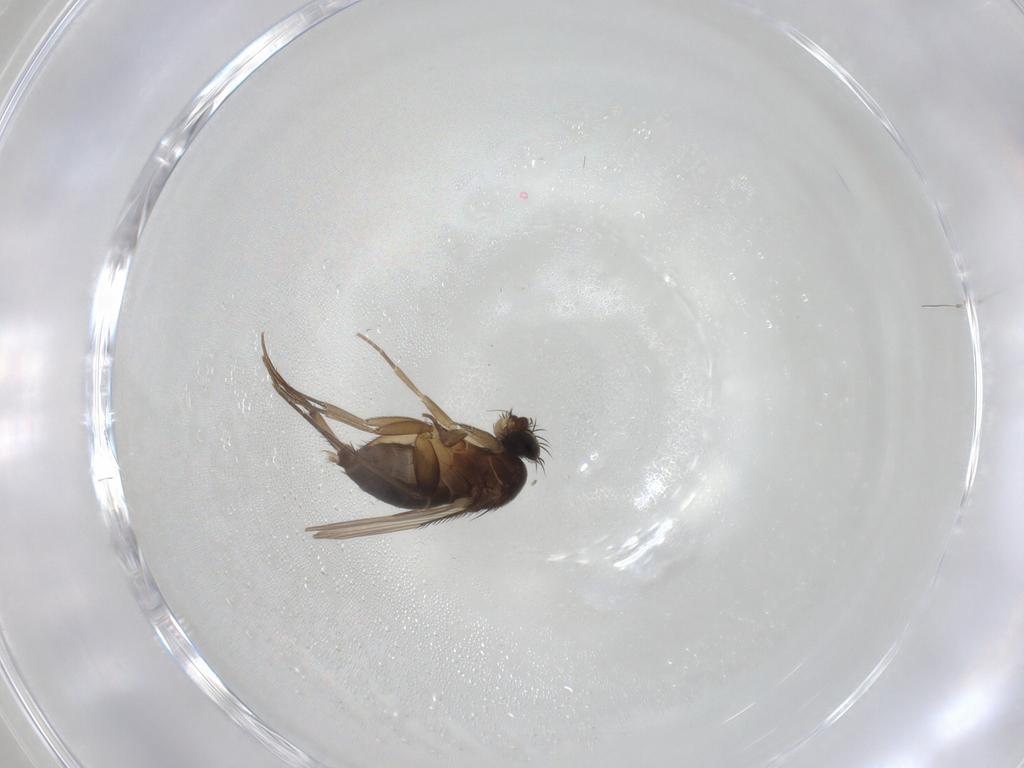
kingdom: Animalia
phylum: Arthropoda
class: Insecta
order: Diptera
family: Phoridae
